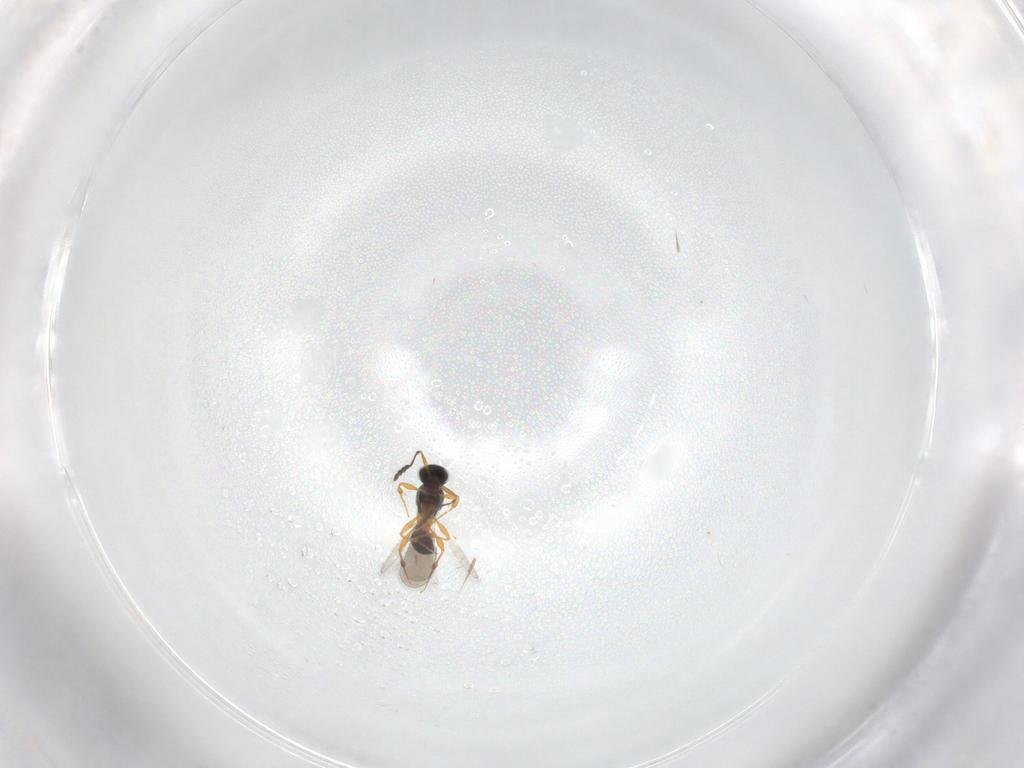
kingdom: Animalia
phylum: Arthropoda
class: Insecta
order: Hymenoptera
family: Platygastridae
